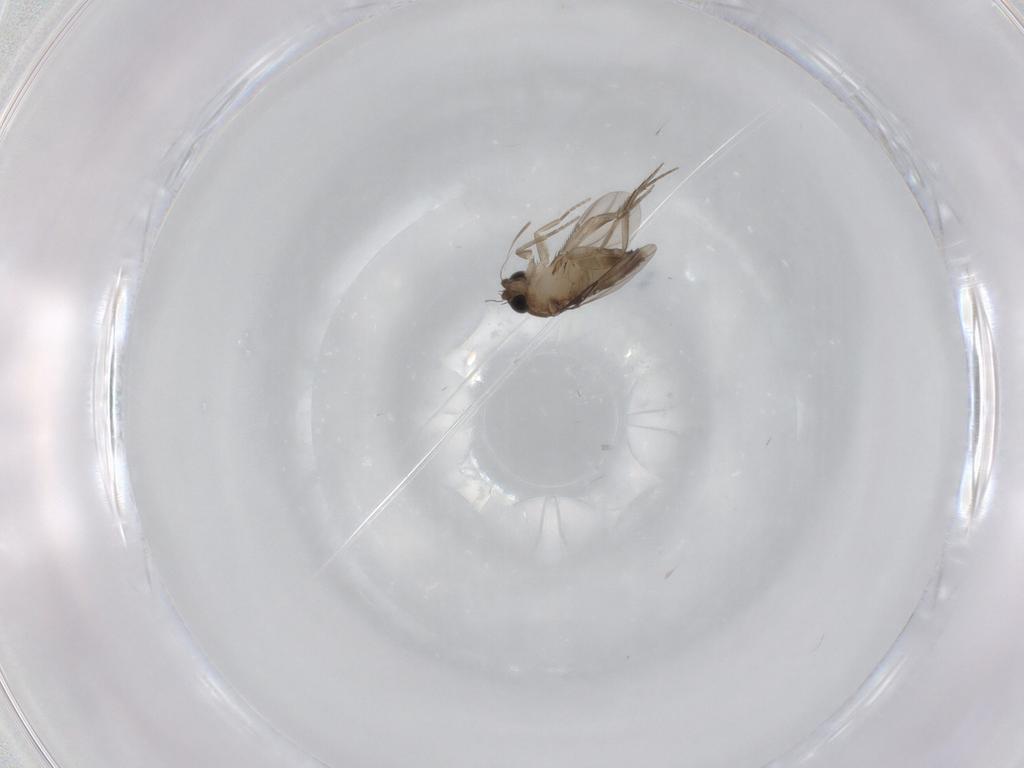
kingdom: Animalia
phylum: Arthropoda
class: Insecta
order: Diptera
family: Phoridae
